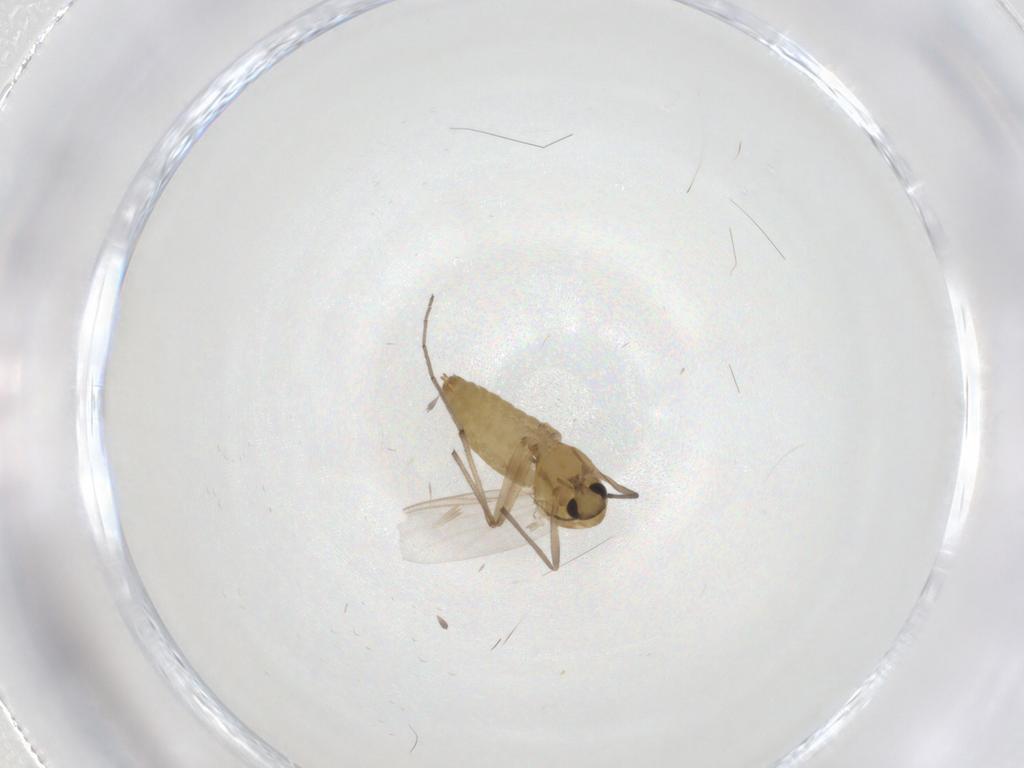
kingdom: Animalia
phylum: Arthropoda
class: Insecta
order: Diptera
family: Chironomidae
